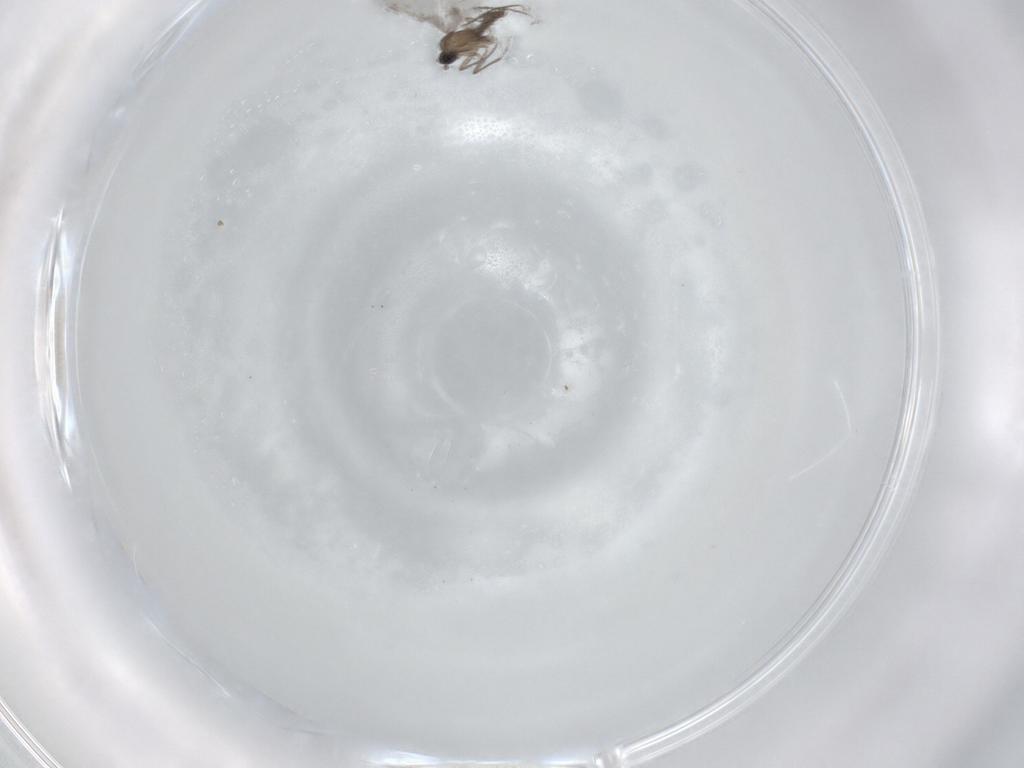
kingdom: Animalia
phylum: Arthropoda
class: Insecta
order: Diptera
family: Sciaridae
